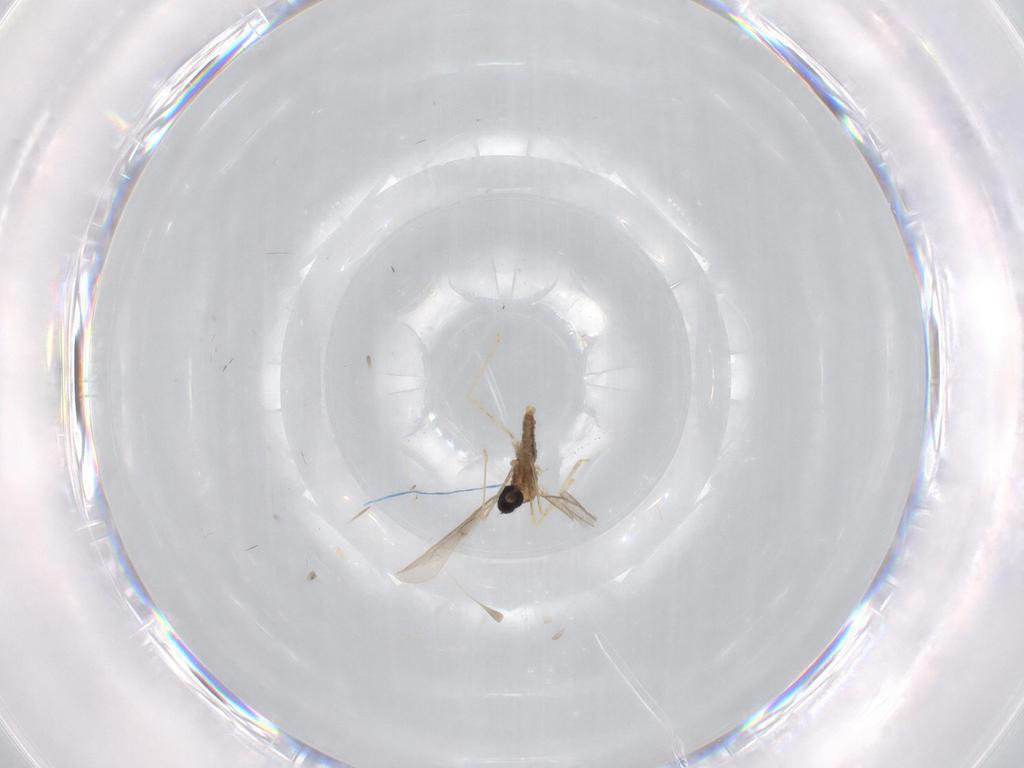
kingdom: Animalia
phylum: Arthropoda
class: Insecta
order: Diptera
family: Cecidomyiidae
